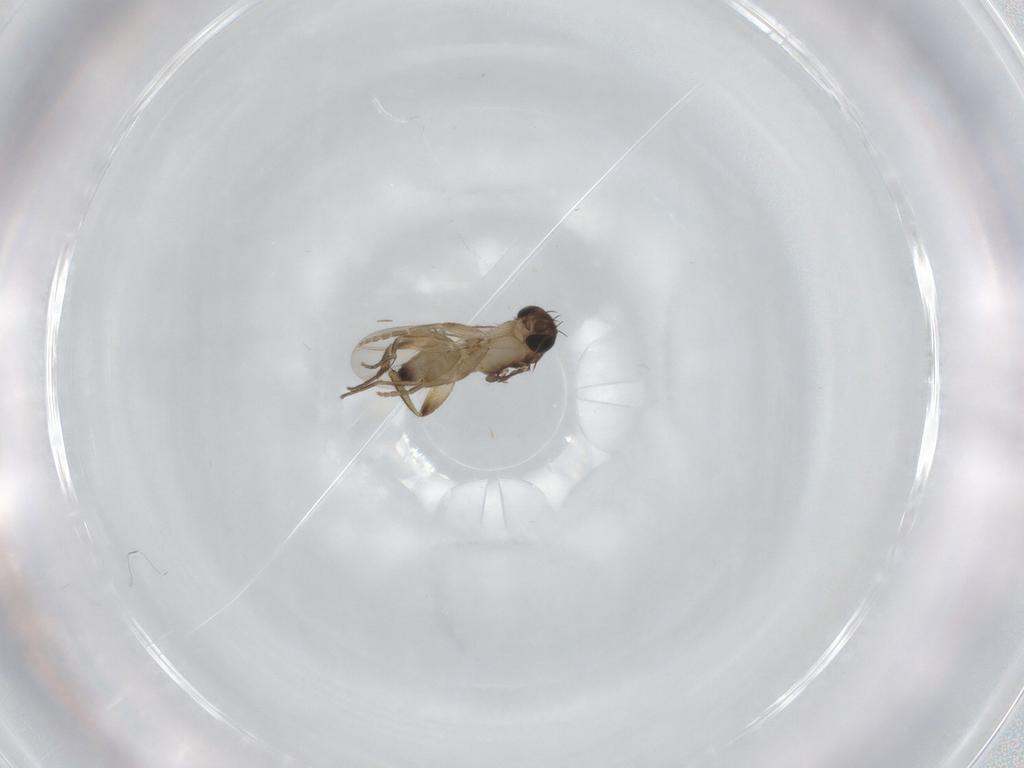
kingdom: Animalia
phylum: Arthropoda
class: Insecta
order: Diptera
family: Phoridae
